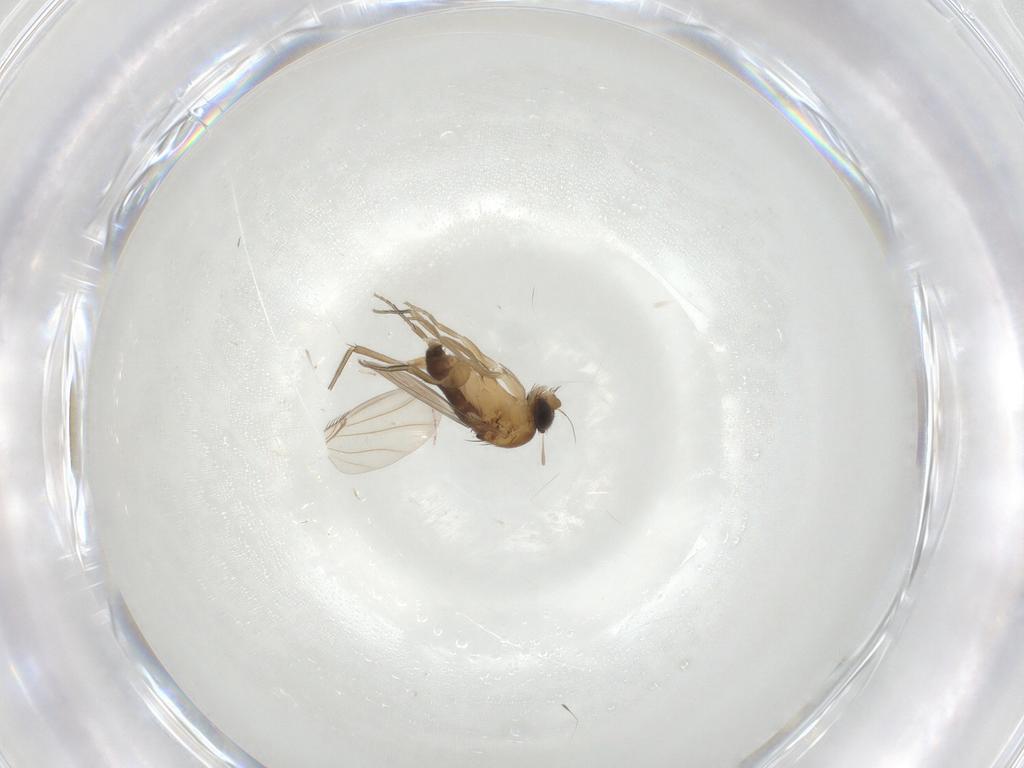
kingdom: Animalia
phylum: Arthropoda
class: Insecta
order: Diptera
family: Phoridae
